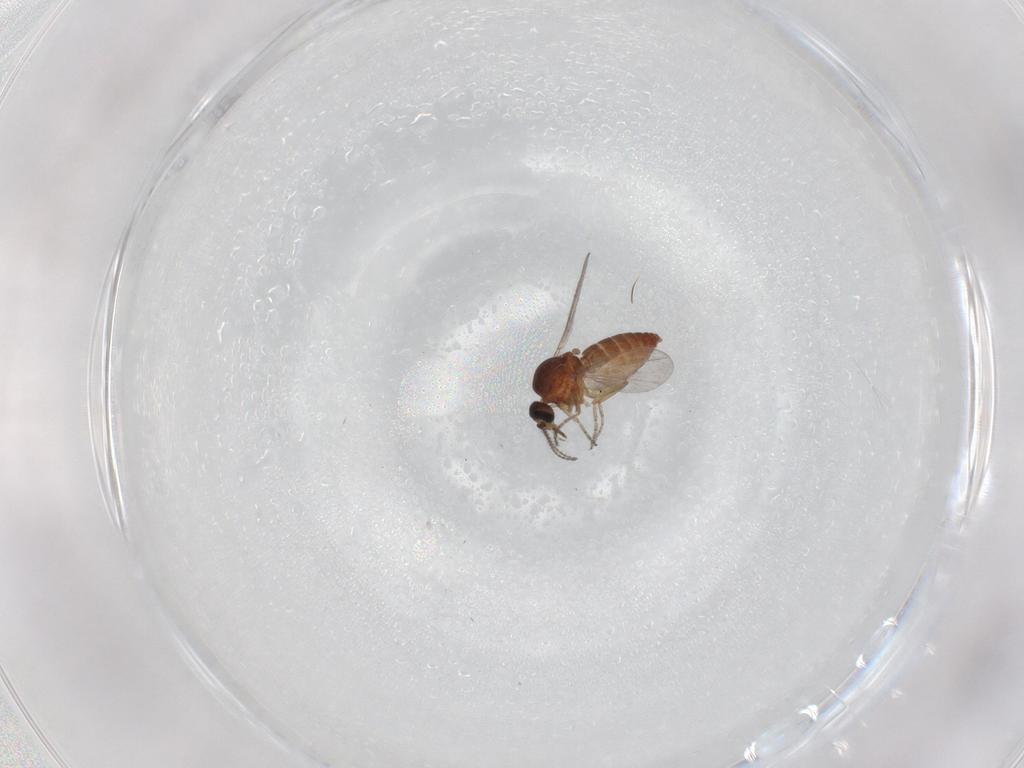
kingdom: Animalia
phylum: Arthropoda
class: Insecta
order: Diptera
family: Ceratopogonidae
